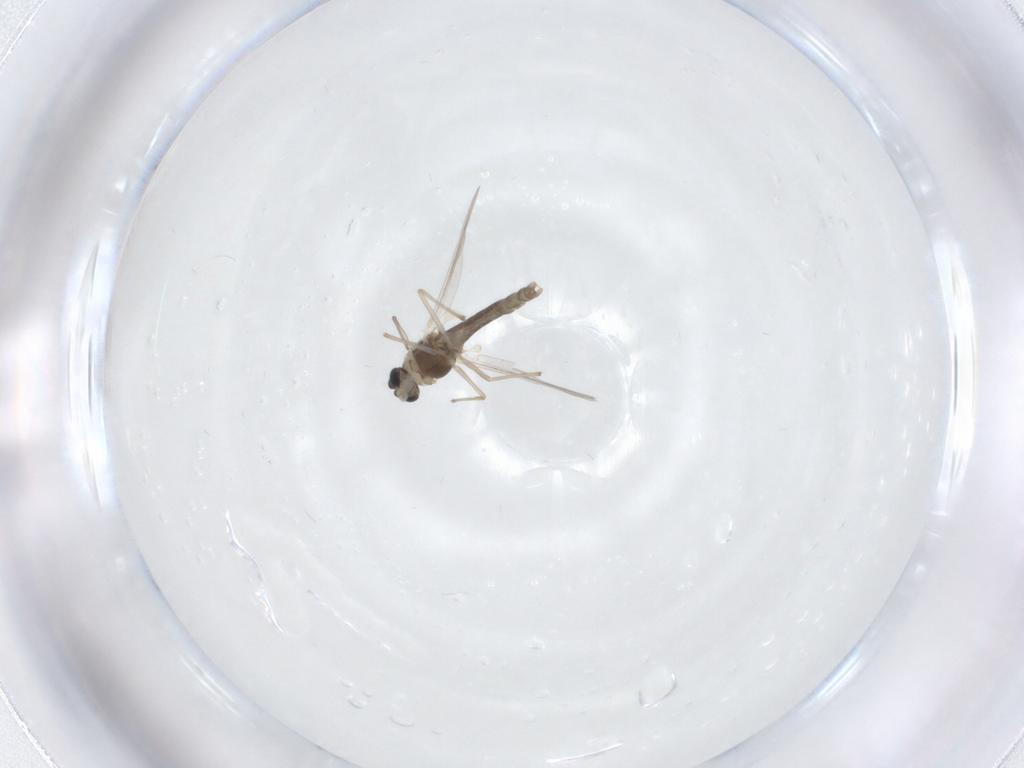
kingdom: Animalia
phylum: Arthropoda
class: Insecta
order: Diptera
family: Chironomidae
